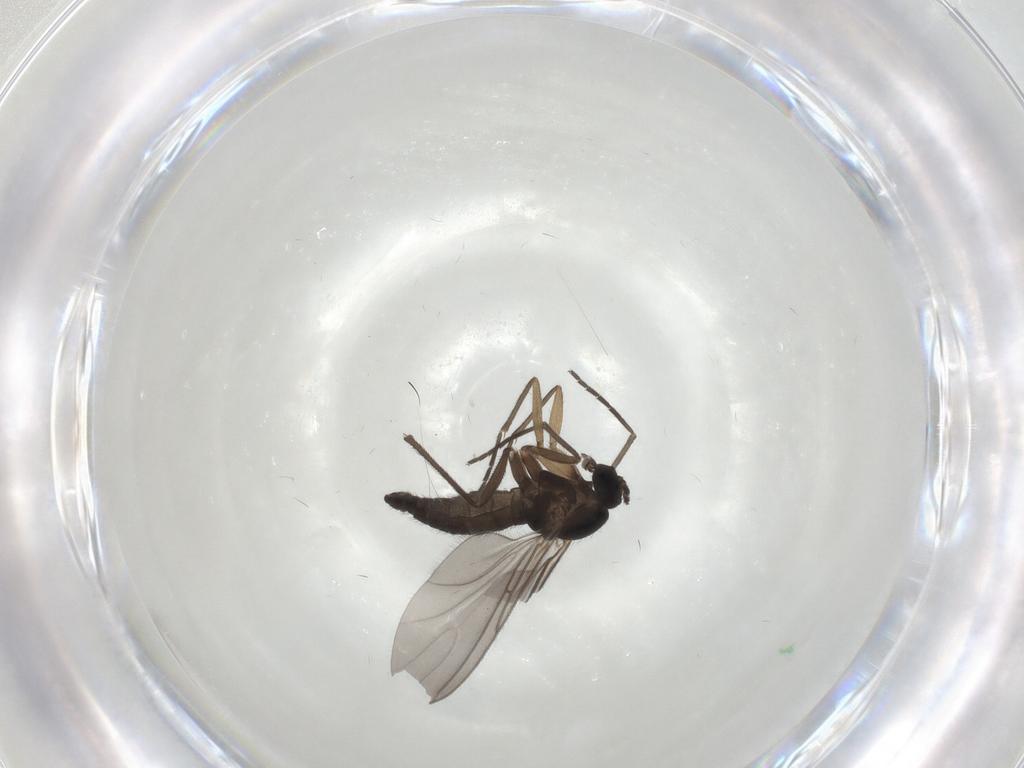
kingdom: Animalia
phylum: Arthropoda
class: Insecta
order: Diptera
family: Sciaridae
